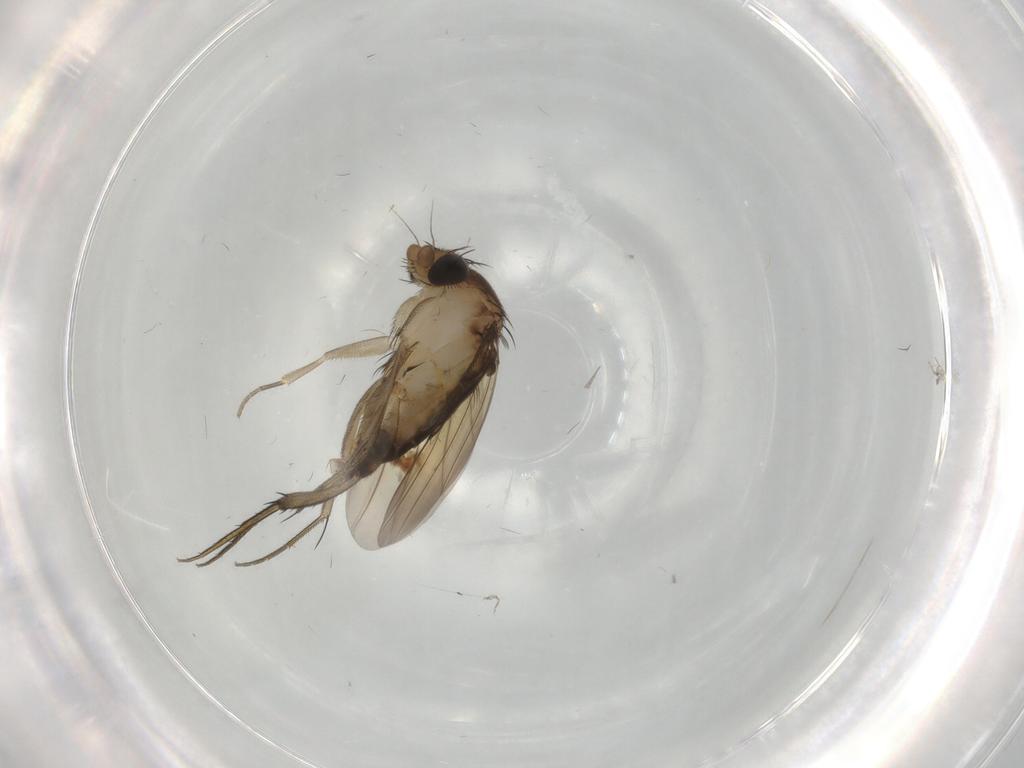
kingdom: Animalia
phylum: Arthropoda
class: Insecta
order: Diptera
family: Phoridae
